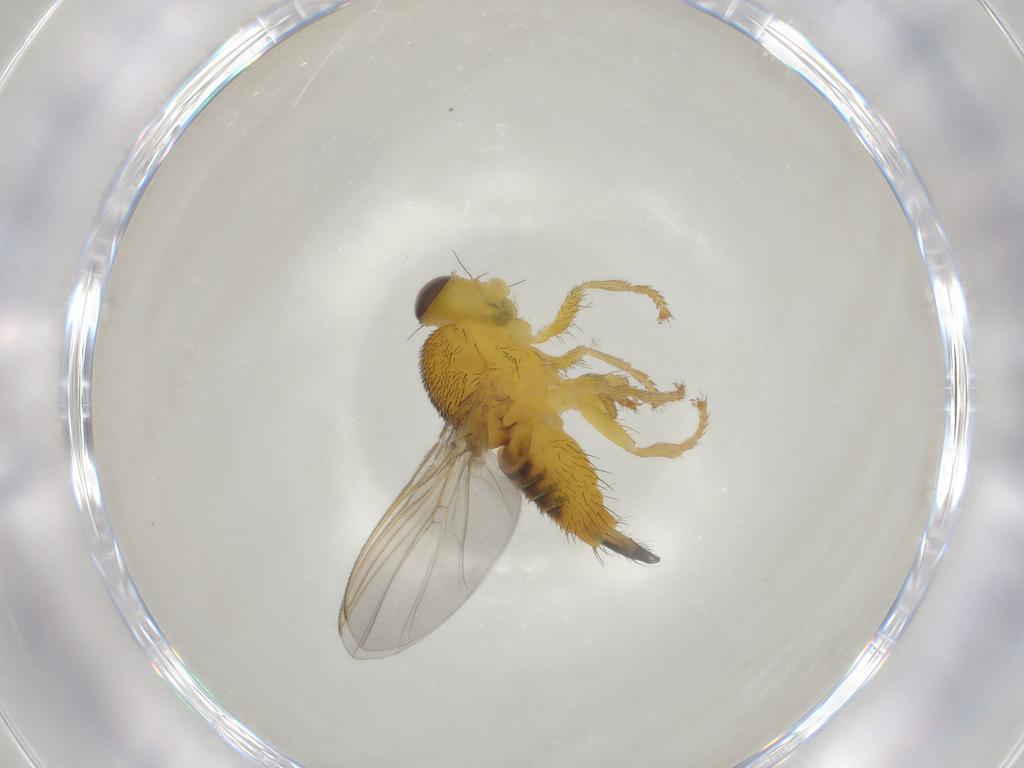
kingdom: Animalia
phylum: Arthropoda
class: Insecta
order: Diptera
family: Fergusoninidae
